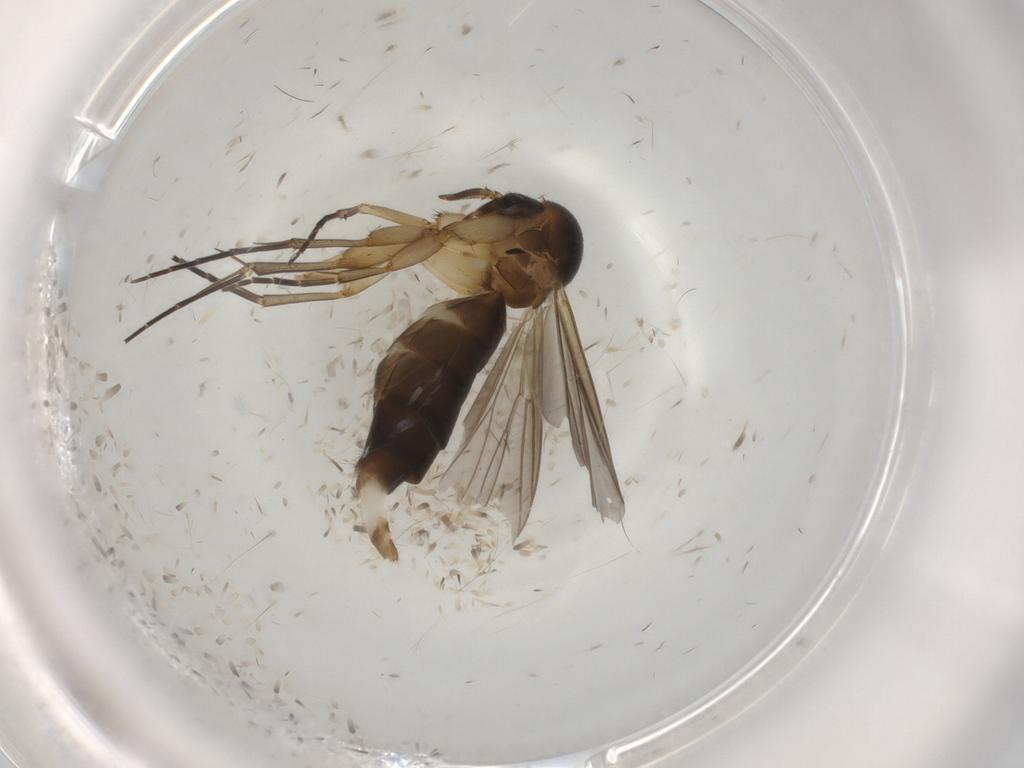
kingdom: Animalia
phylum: Arthropoda
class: Insecta
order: Diptera
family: Mycetophilidae
